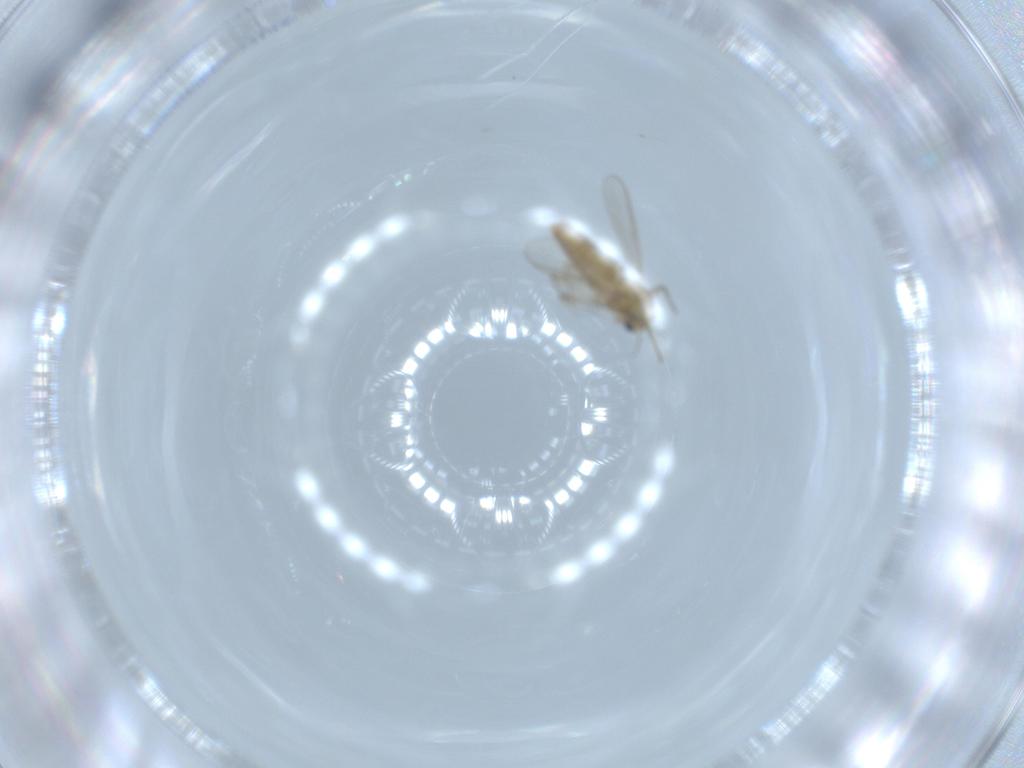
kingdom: Animalia
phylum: Arthropoda
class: Insecta
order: Diptera
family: Chironomidae
